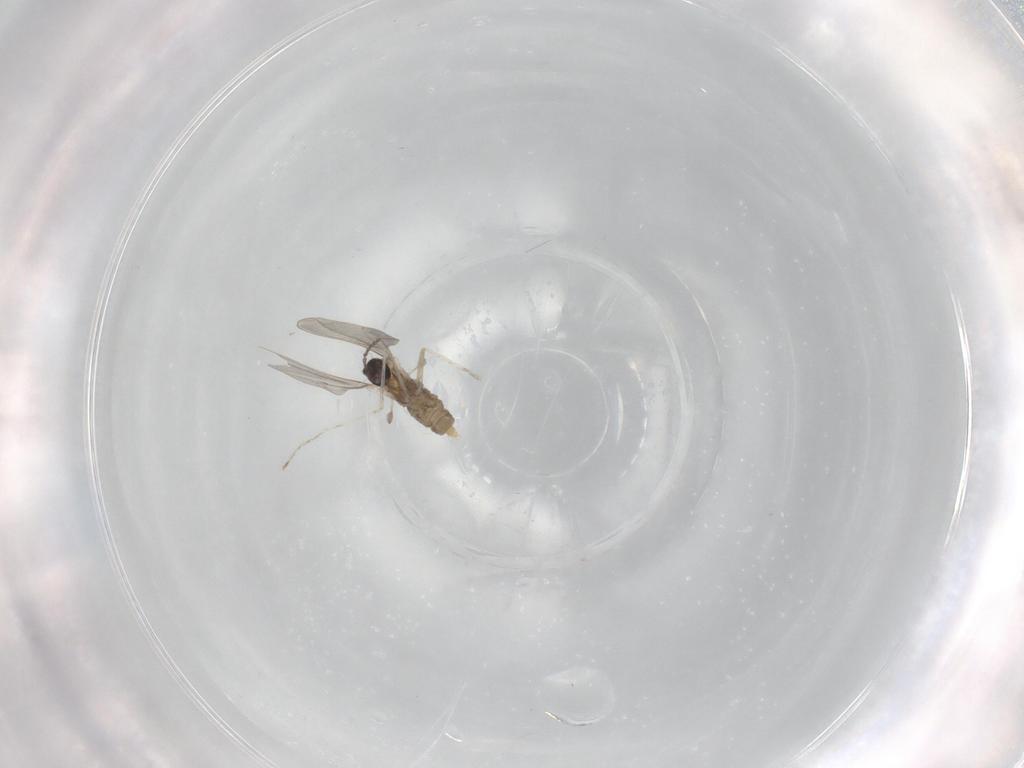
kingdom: Animalia
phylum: Arthropoda
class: Insecta
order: Diptera
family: Cecidomyiidae
